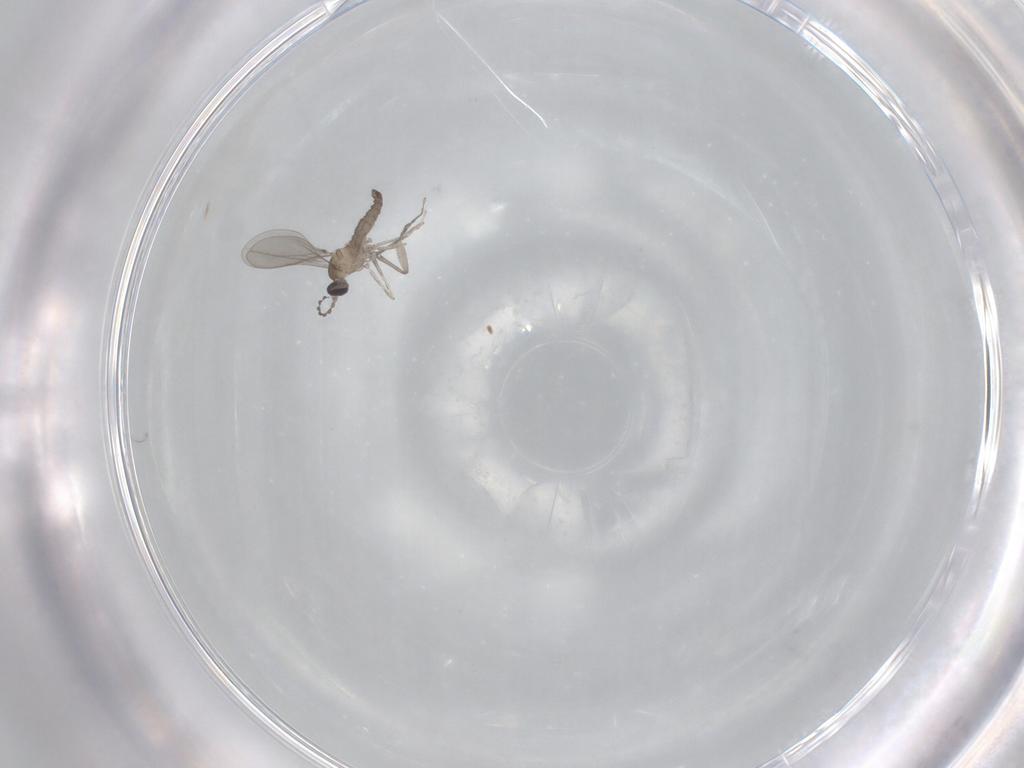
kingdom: Animalia
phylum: Arthropoda
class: Insecta
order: Diptera
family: Cecidomyiidae
